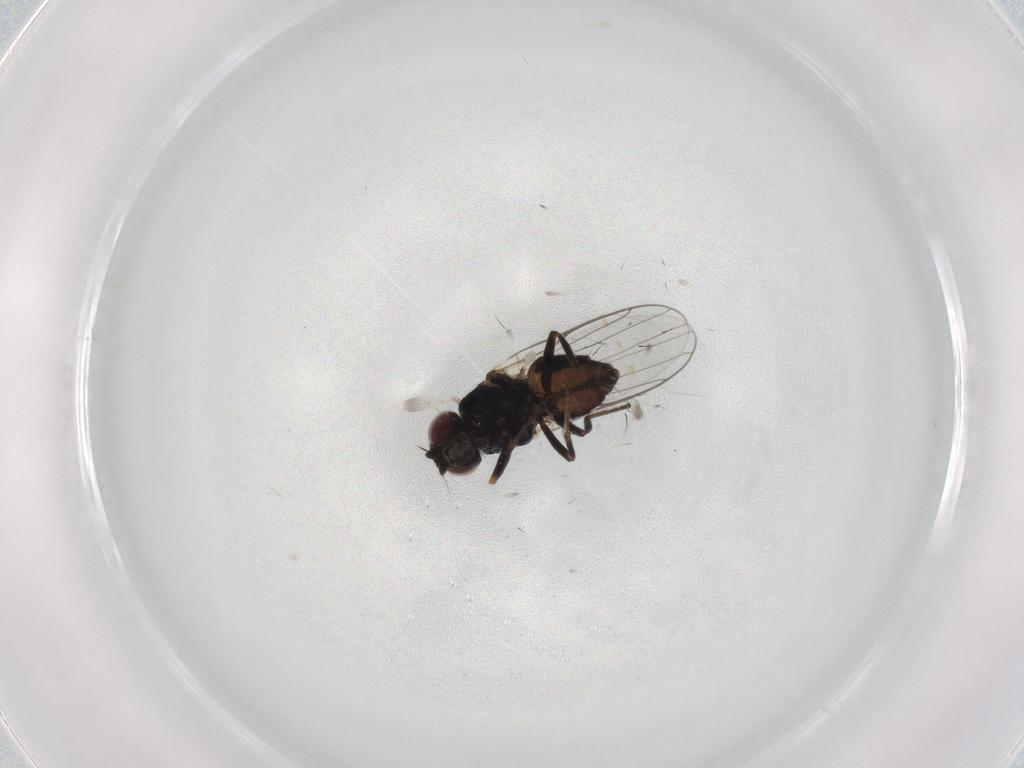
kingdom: Animalia
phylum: Arthropoda
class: Insecta
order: Diptera
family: Chloropidae
